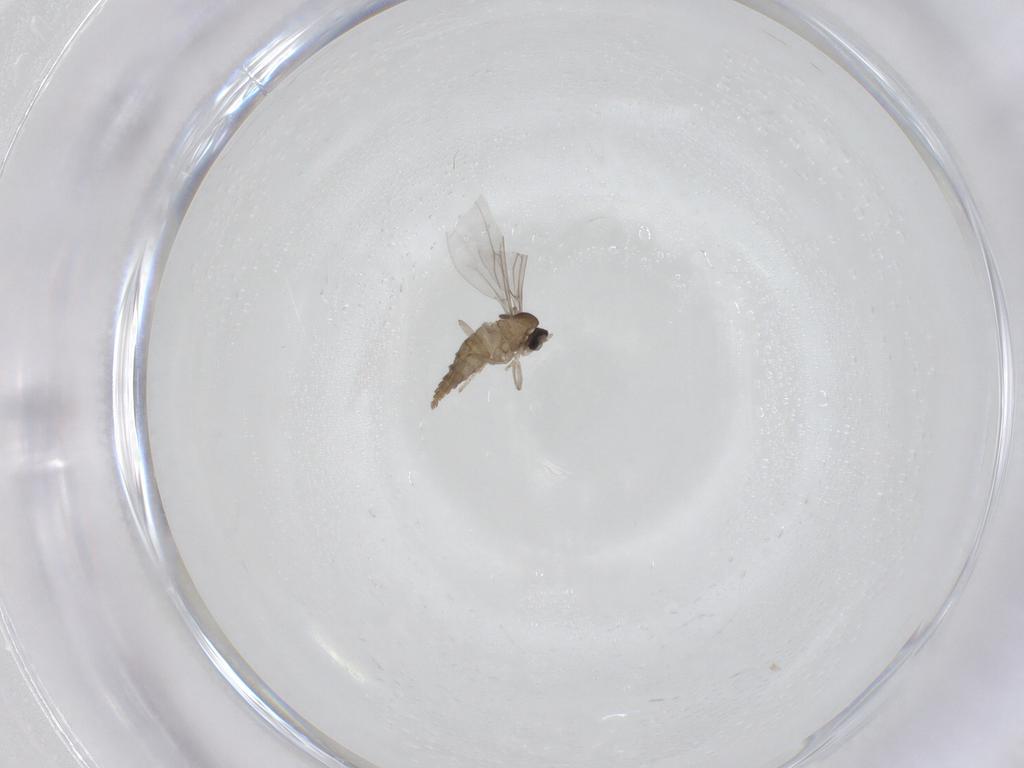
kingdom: Animalia
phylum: Arthropoda
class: Insecta
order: Diptera
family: Cecidomyiidae
